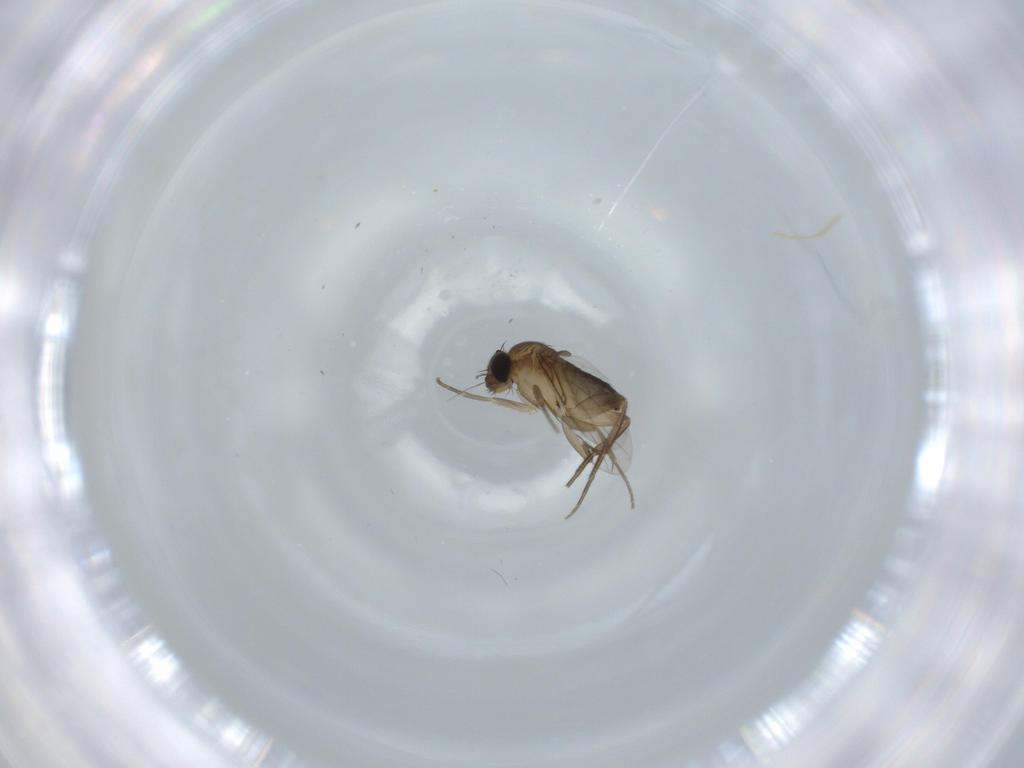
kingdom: Animalia
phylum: Arthropoda
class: Insecta
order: Diptera
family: Phoridae
